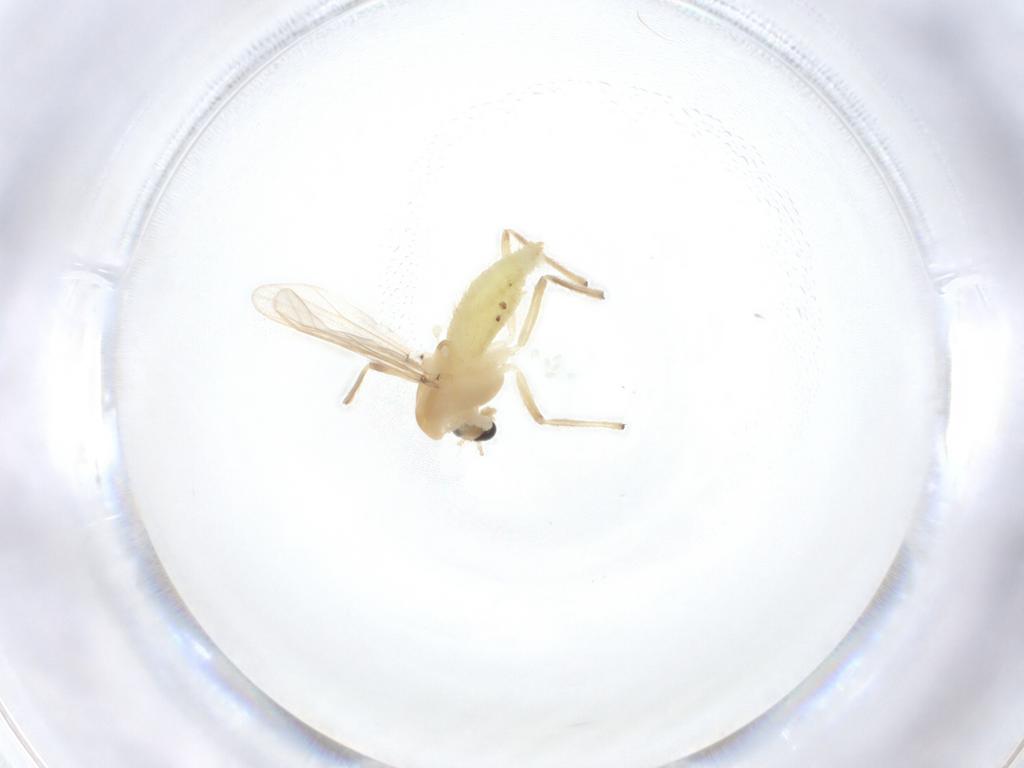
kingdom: Animalia
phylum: Arthropoda
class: Insecta
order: Diptera
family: Chironomidae
